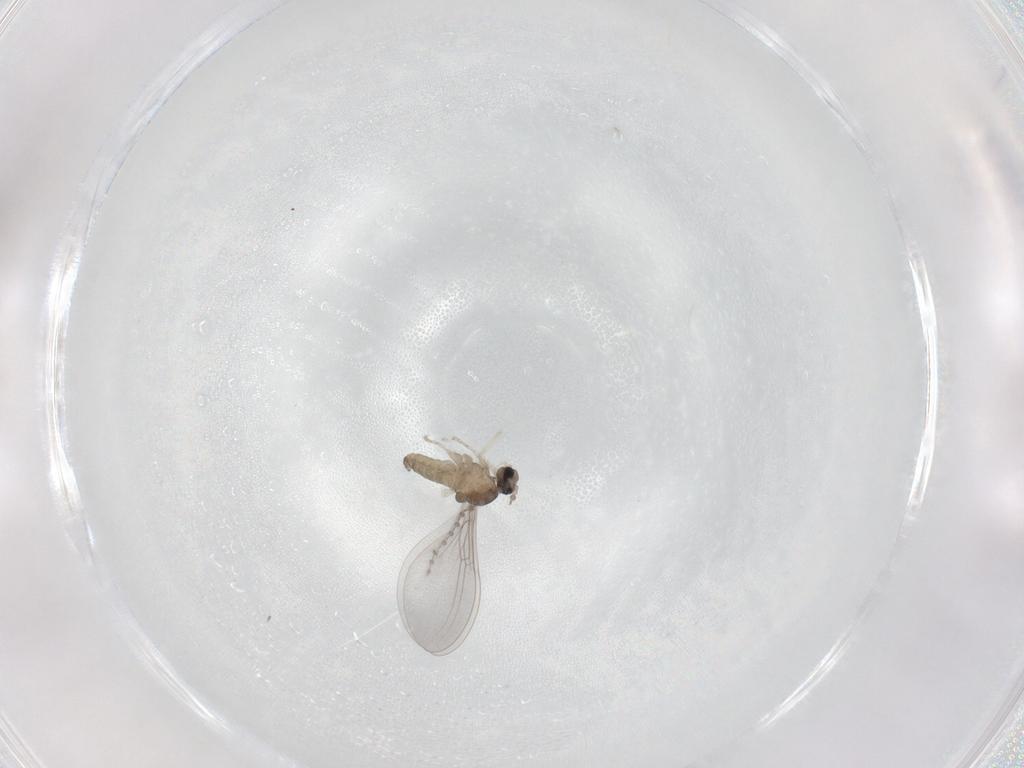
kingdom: Animalia
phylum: Arthropoda
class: Insecta
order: Diptera
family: Cecidomyiidae
